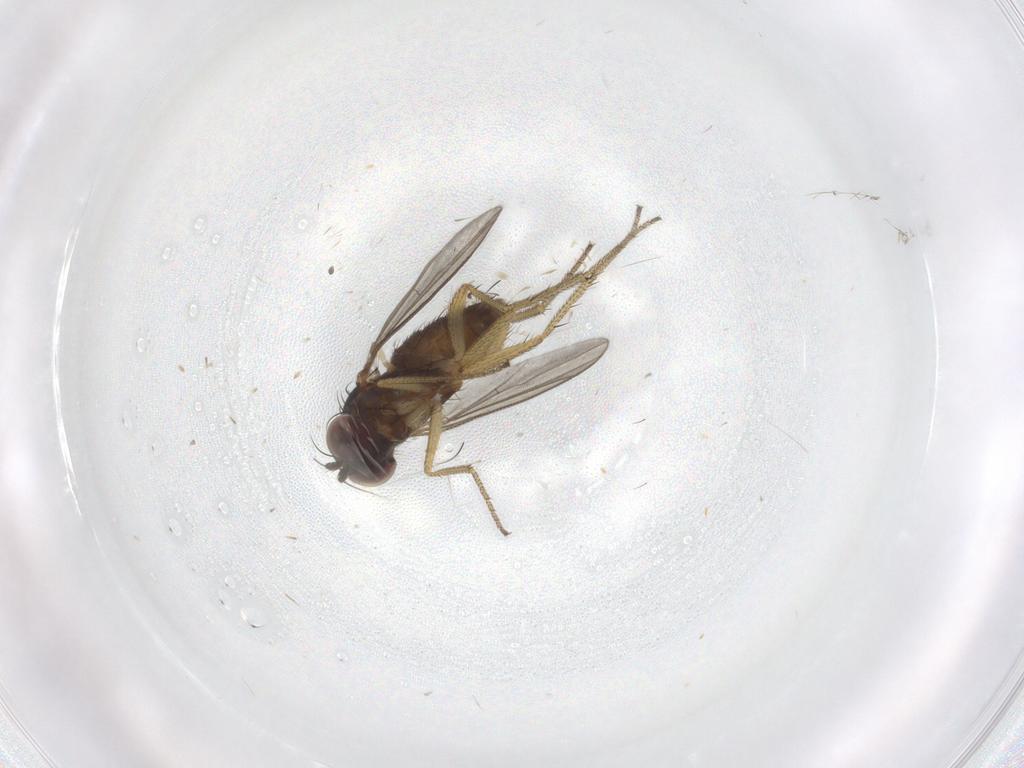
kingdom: Animalia
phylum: Arthropoda
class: Insecta
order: Diptera
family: Dolichopodidae
